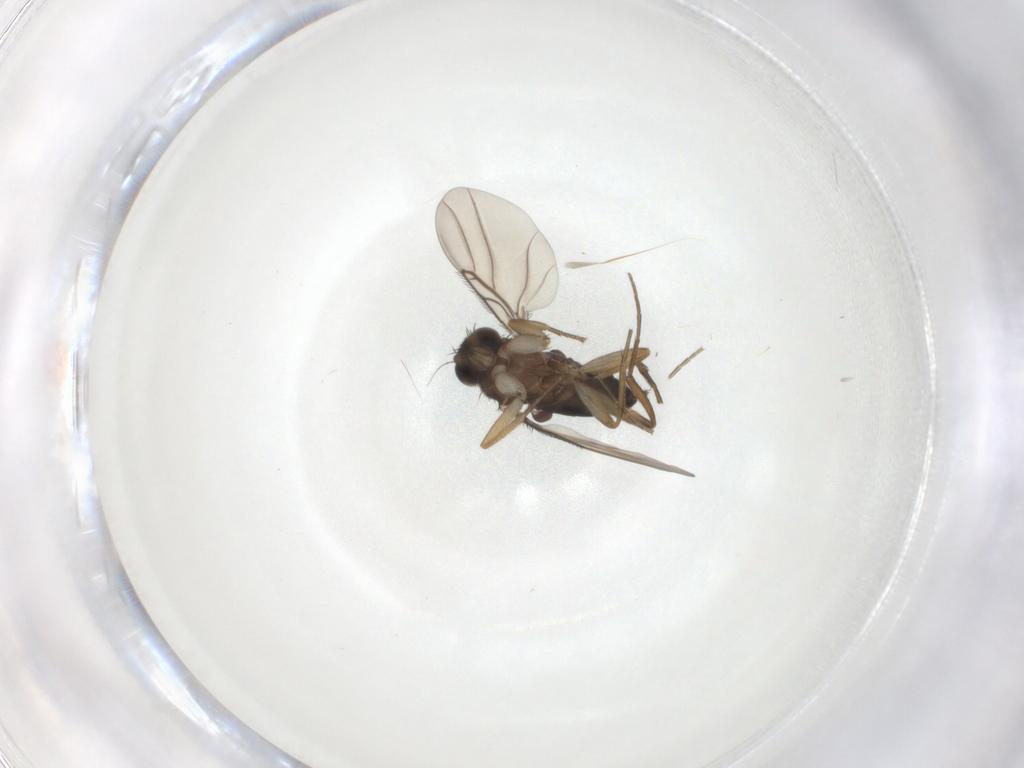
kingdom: Animalia
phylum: Arthropoda
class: Insecta
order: Diptera
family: Phoridae
